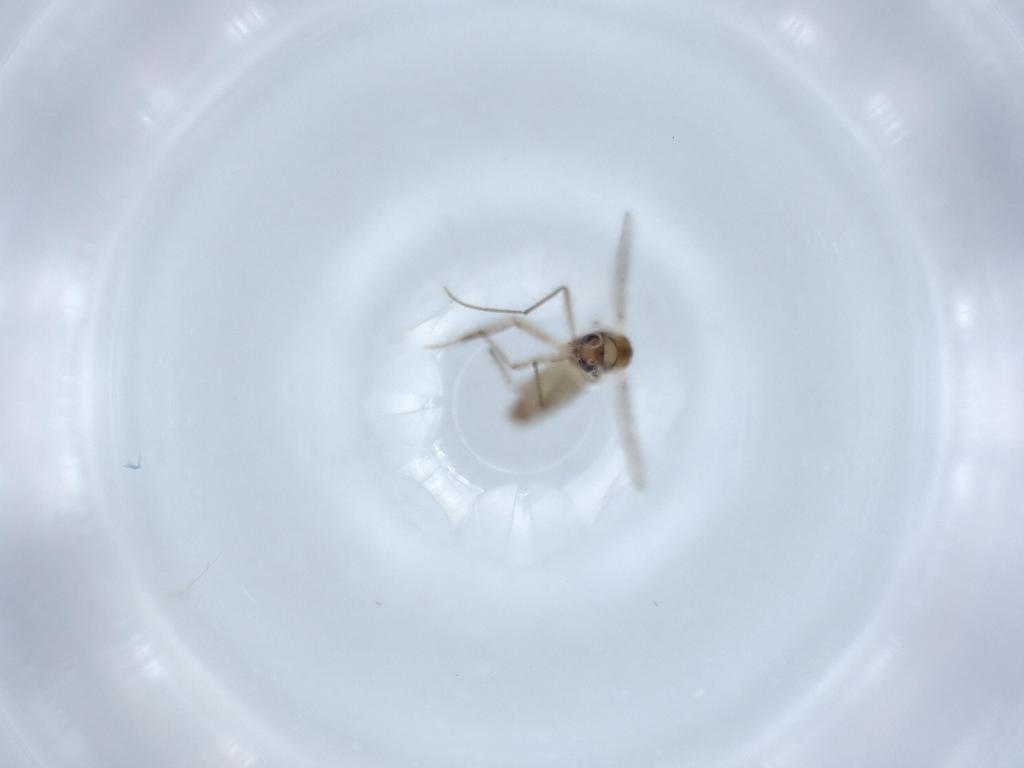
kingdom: Animalia
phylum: Arthropoda
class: Insecta
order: Diptera
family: Chironomidae
